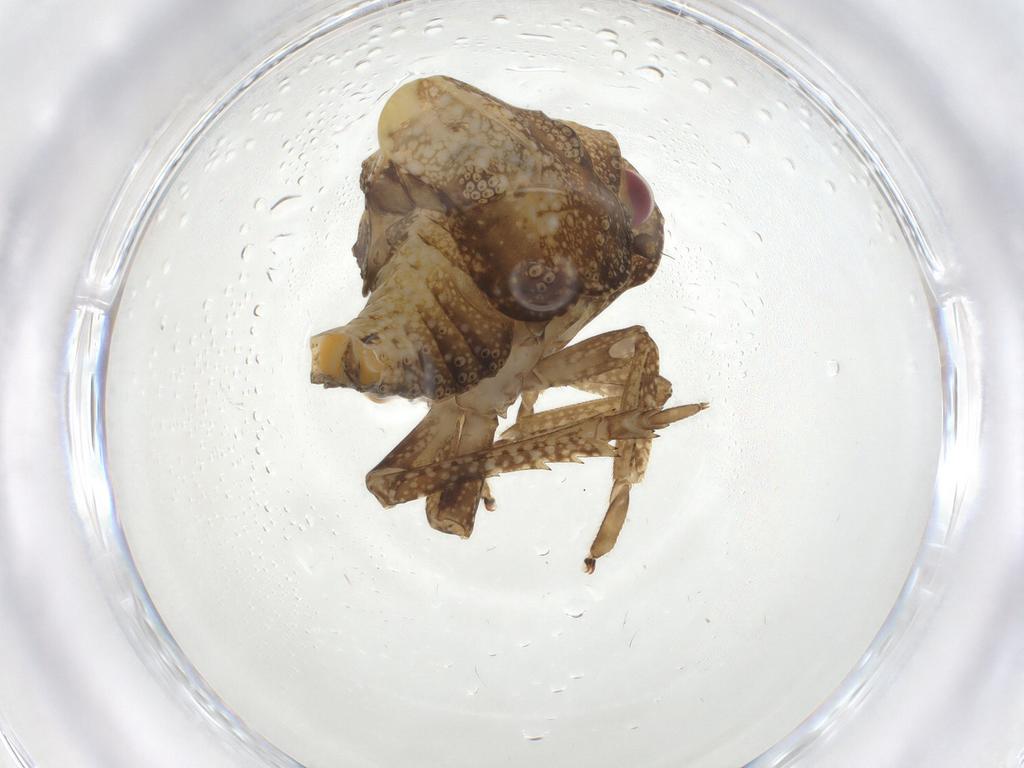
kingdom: Animalia
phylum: Arthropoda
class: Insecta
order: Hemiptera
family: Acanaloniidae
